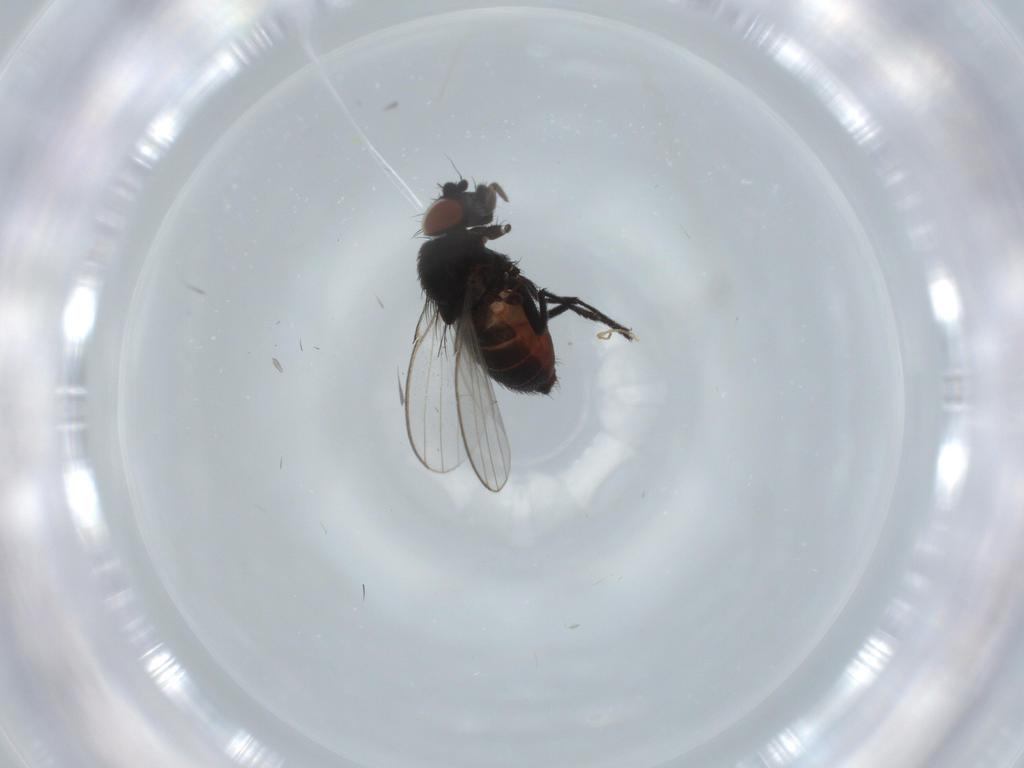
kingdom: Animalia
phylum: Arthropoda
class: Insecta
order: Diptera
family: Milichiidae
